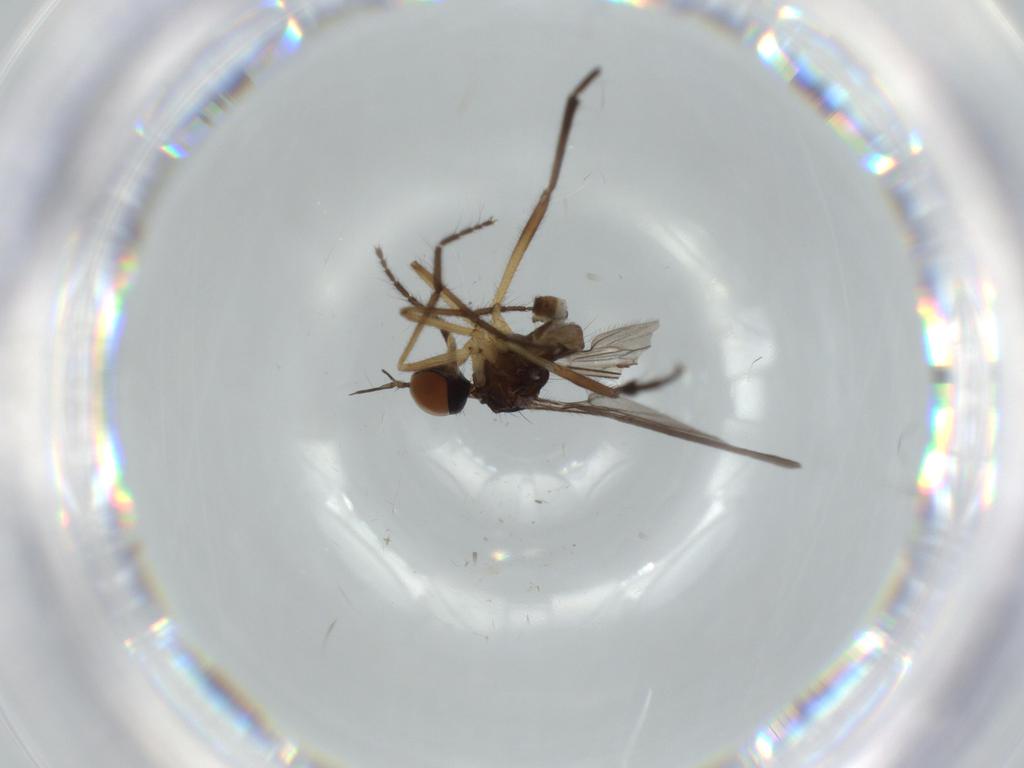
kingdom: Animalia
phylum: Arthropoda
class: Insecta
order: Diptera
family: Empididae
